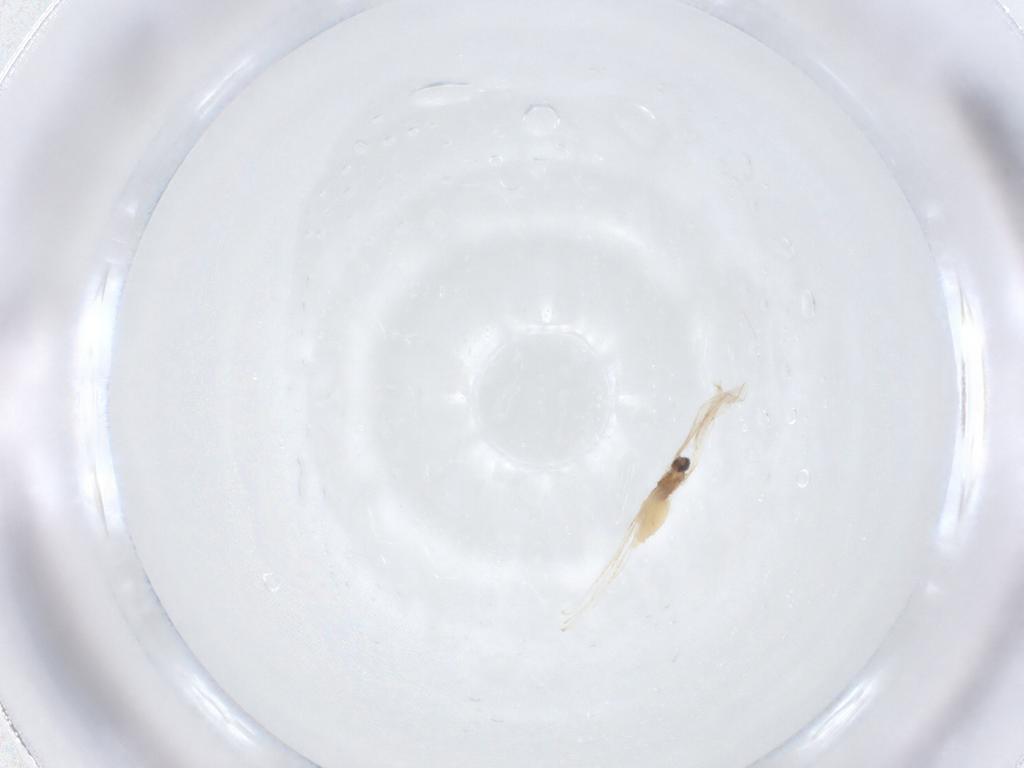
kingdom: Animalia
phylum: Arthropoda
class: Insecta
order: Diptera
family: Cecidomyiidae
